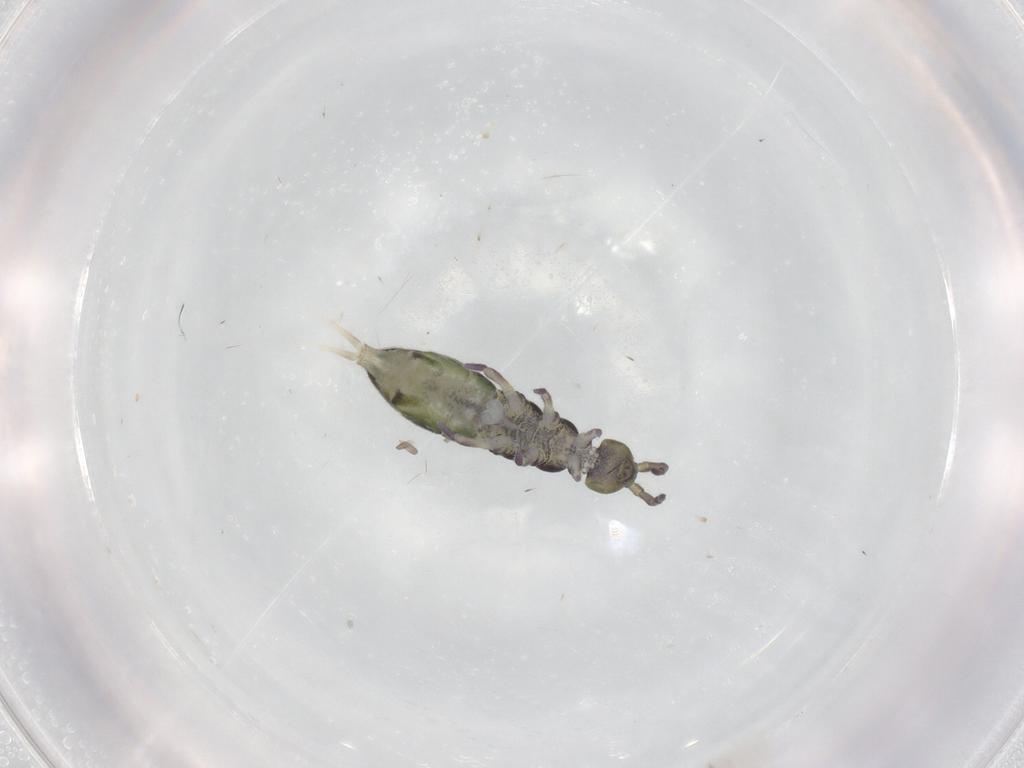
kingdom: Animalia
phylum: Arthropoda
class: Collembola
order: Entomobryomorpha
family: Isotomidae
